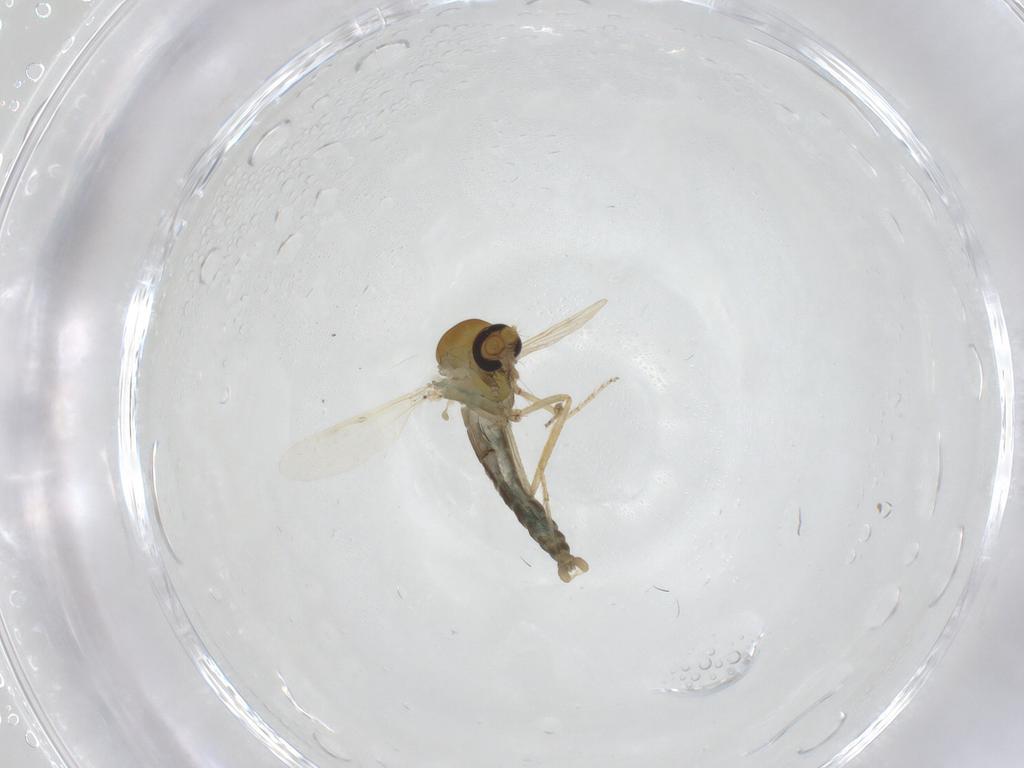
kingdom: Animalia
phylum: Arthropoda
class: Insecta
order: Diptera
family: Ceratopogonidae
